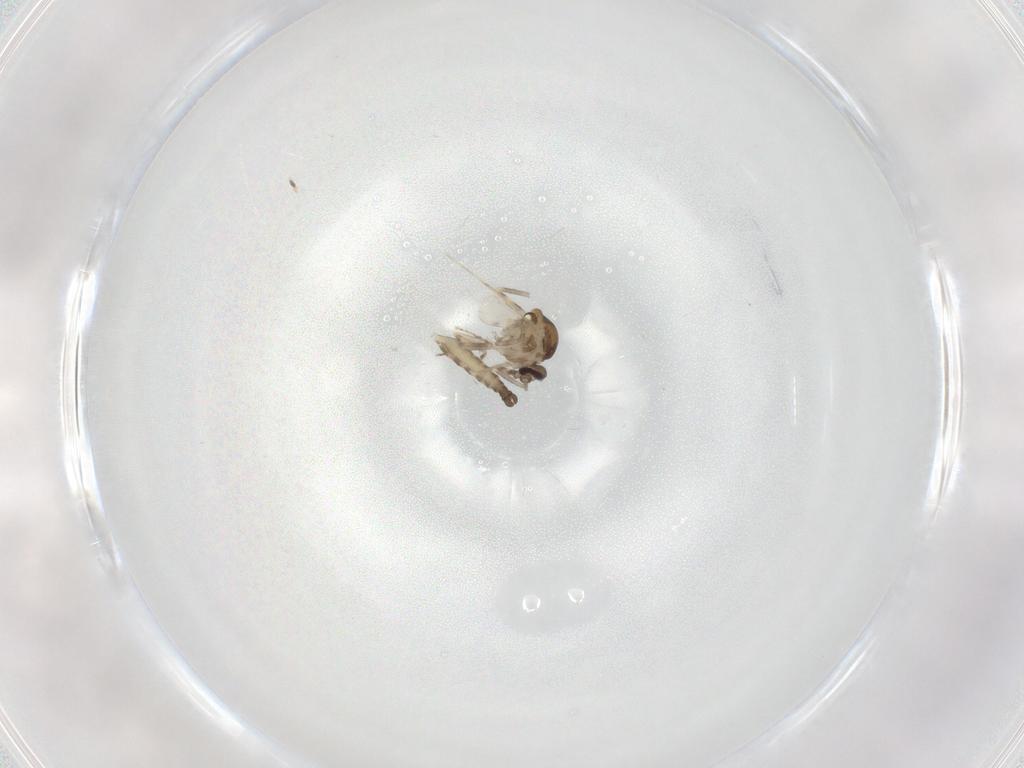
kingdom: Animalia
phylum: Arthropoda
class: Insecta
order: Diptera
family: Ceratopogonidae
